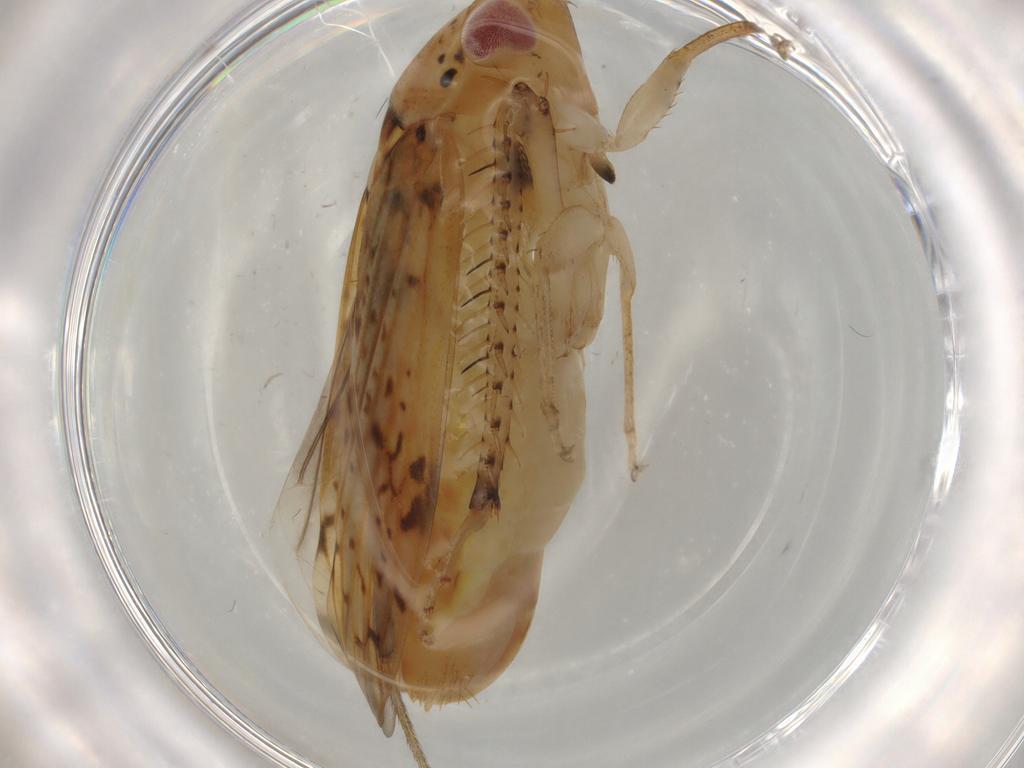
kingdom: Animalia
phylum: Arthropoda
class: Insecta
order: Hemiptera
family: Cicadellidae
